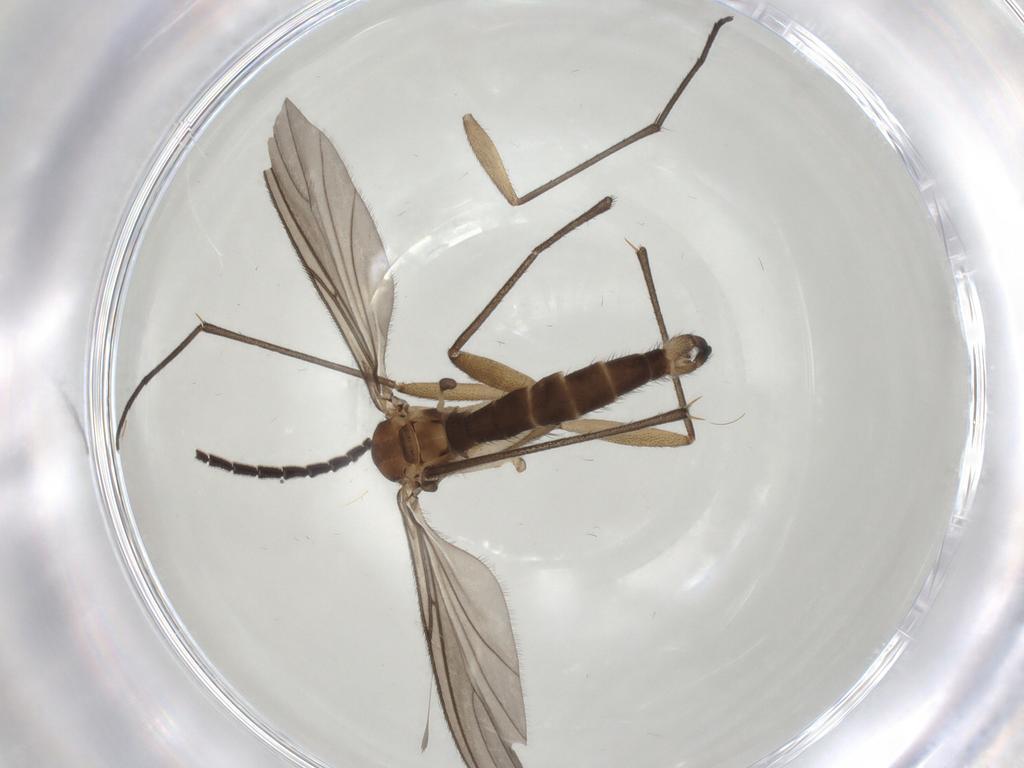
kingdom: Animalia
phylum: Arthropoda
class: Insecta
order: Diptera
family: Sciaridae
